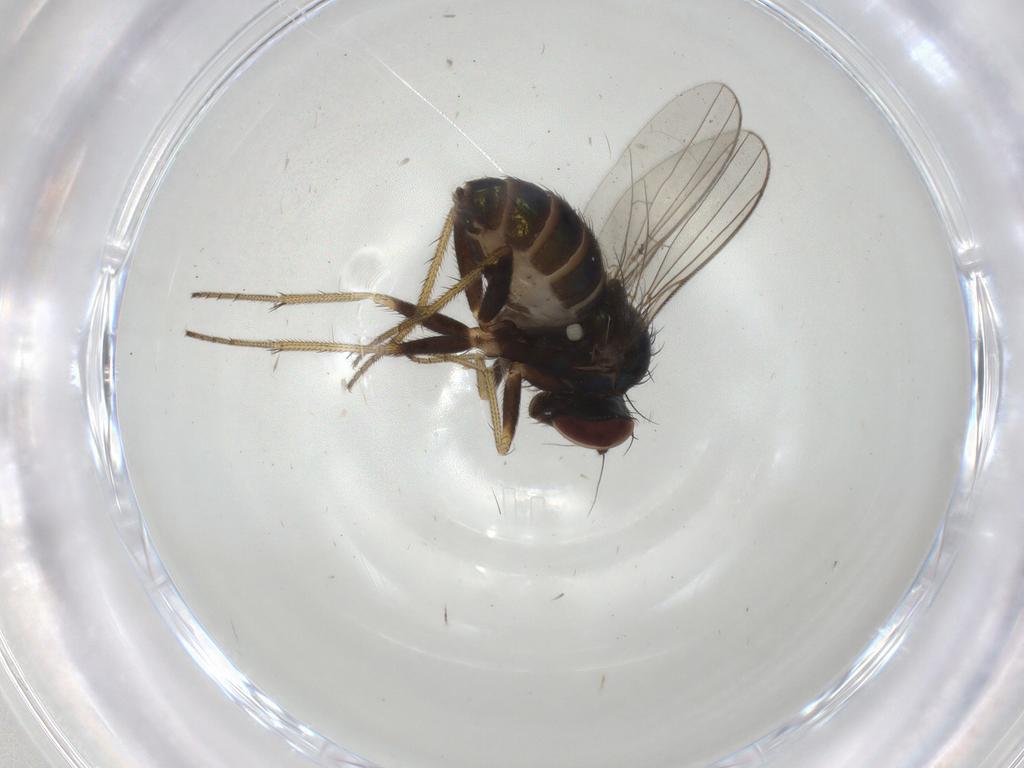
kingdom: Animalia
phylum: Arthropoda
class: Insecta
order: Diptera
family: Dolichopodidae
